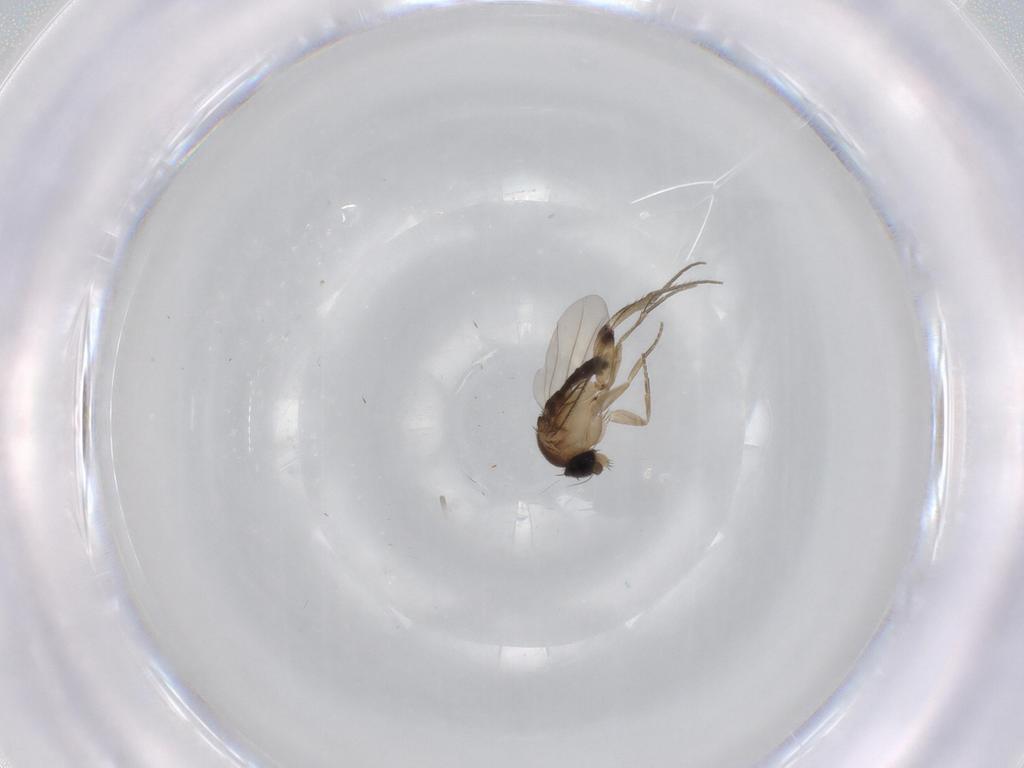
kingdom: Animalia
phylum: Arthropoda
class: Insecta
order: Diptera
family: Phoridae
